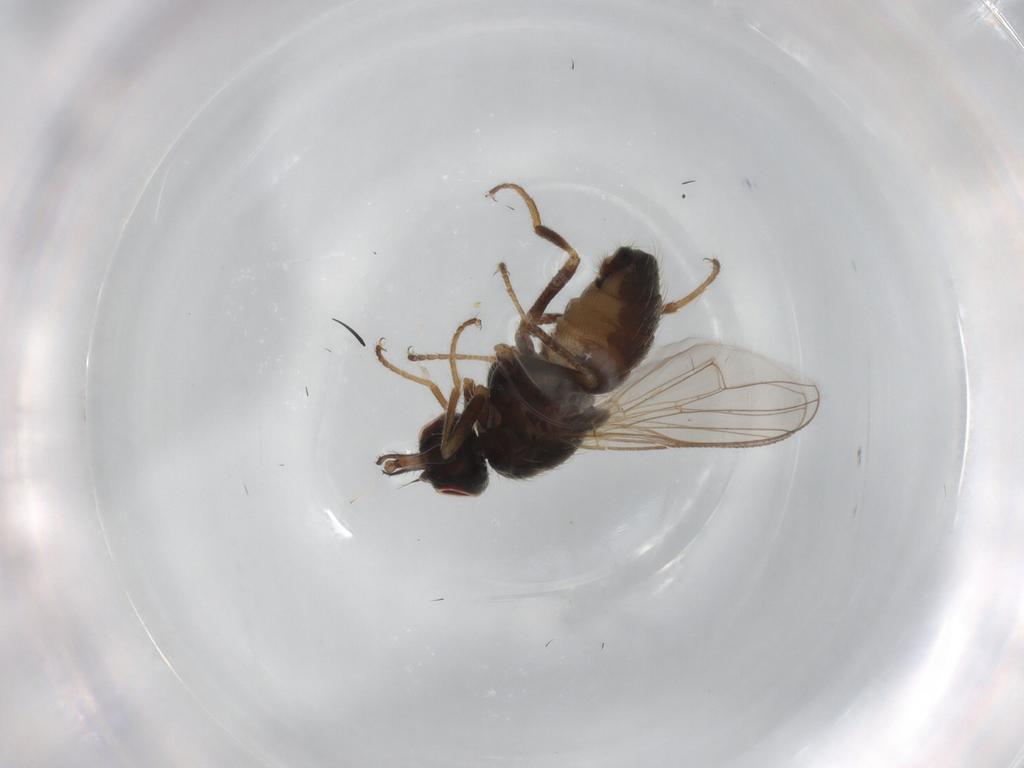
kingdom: Animalia
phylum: Arthropoda
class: Insecta
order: Diptera
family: Muscidae
